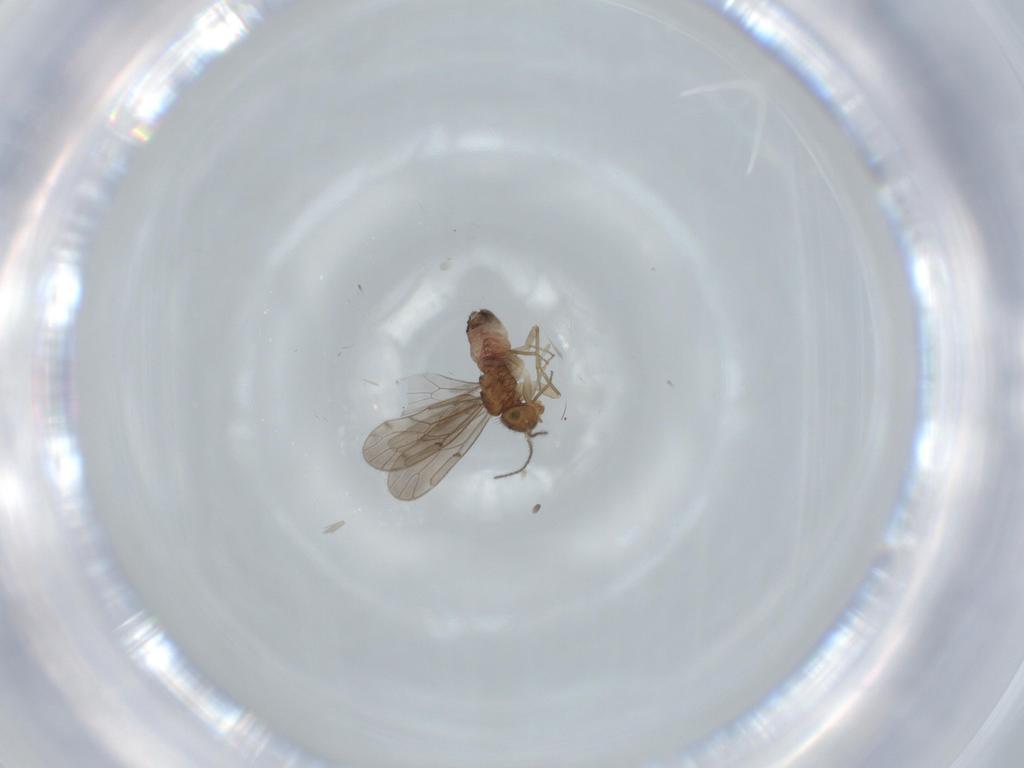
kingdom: Animalia
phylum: Arthropoda
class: Insecta
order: Psocodea
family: Ectopsocidae
